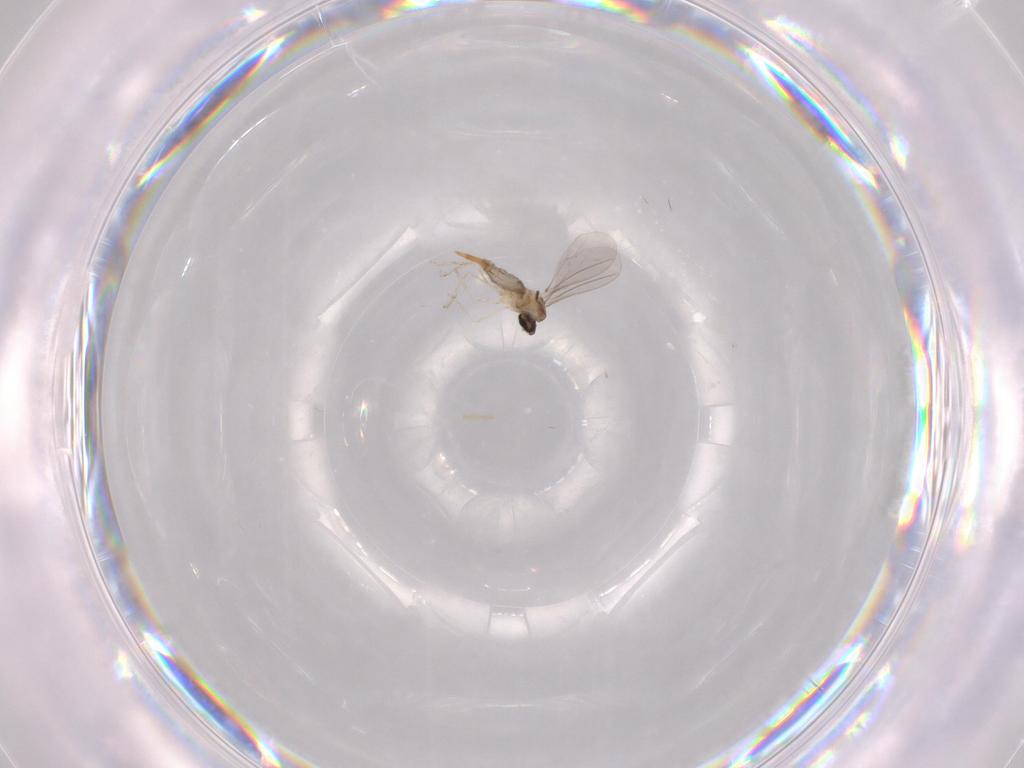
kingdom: Animalia
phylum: Arthropoda
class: Insecta
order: Diptera
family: Cecidomyiidae
